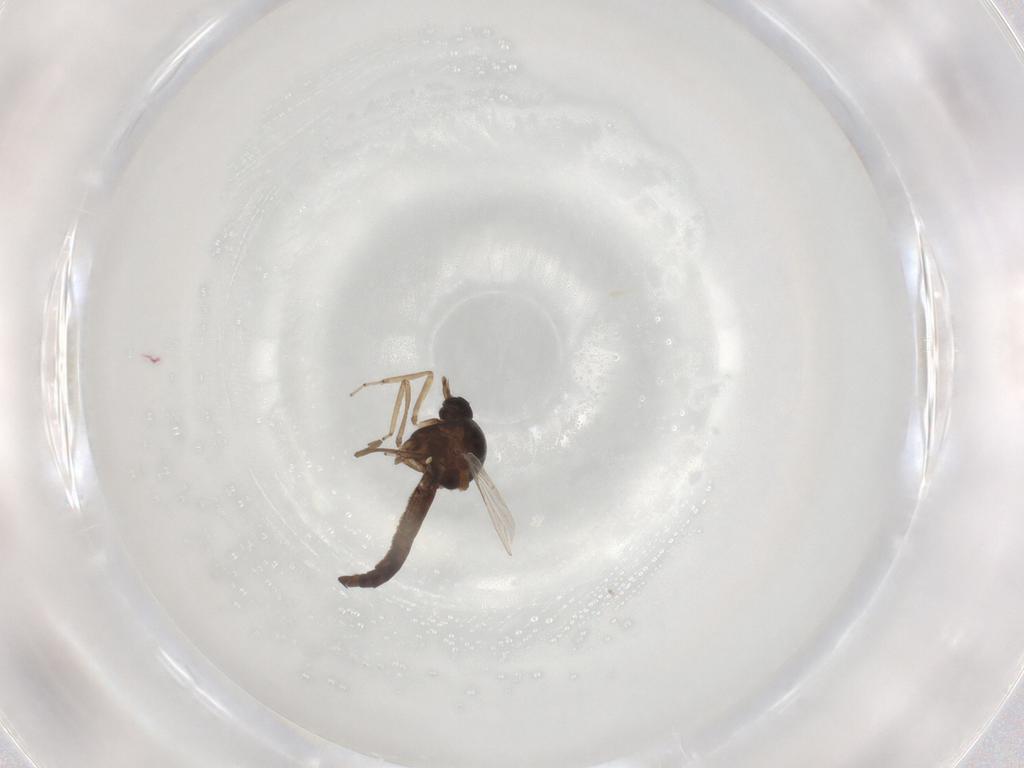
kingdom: Animalia
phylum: Arthropoda
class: Insecta
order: Diptera
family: Ceratopogonidae
